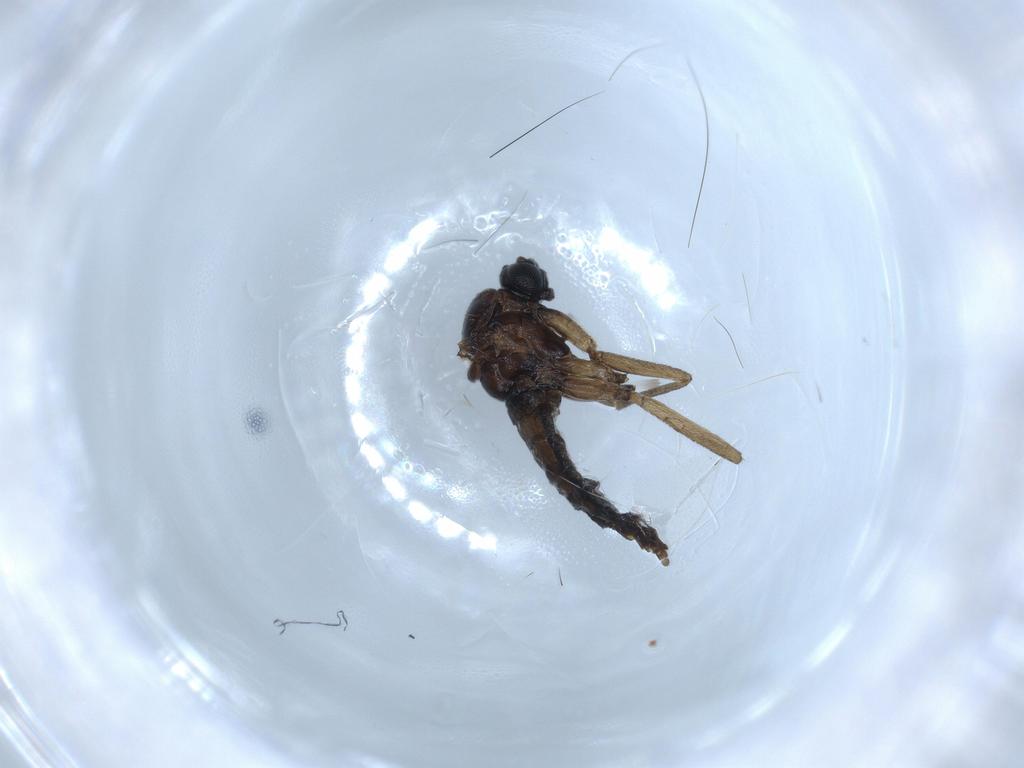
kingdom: Animalia
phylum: Arthropoda
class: Insecta
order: Diptera
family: Sciaridae
